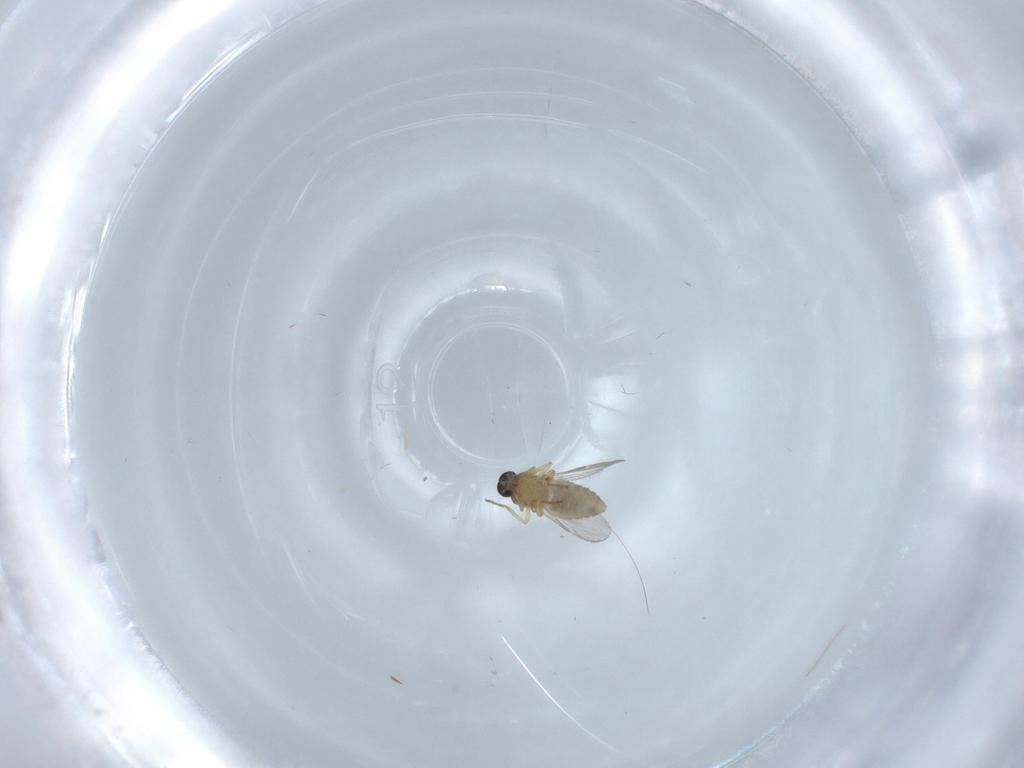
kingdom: Animalia
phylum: Arthropoda
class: Insecta
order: Diptera
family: Ceratopogonidae
